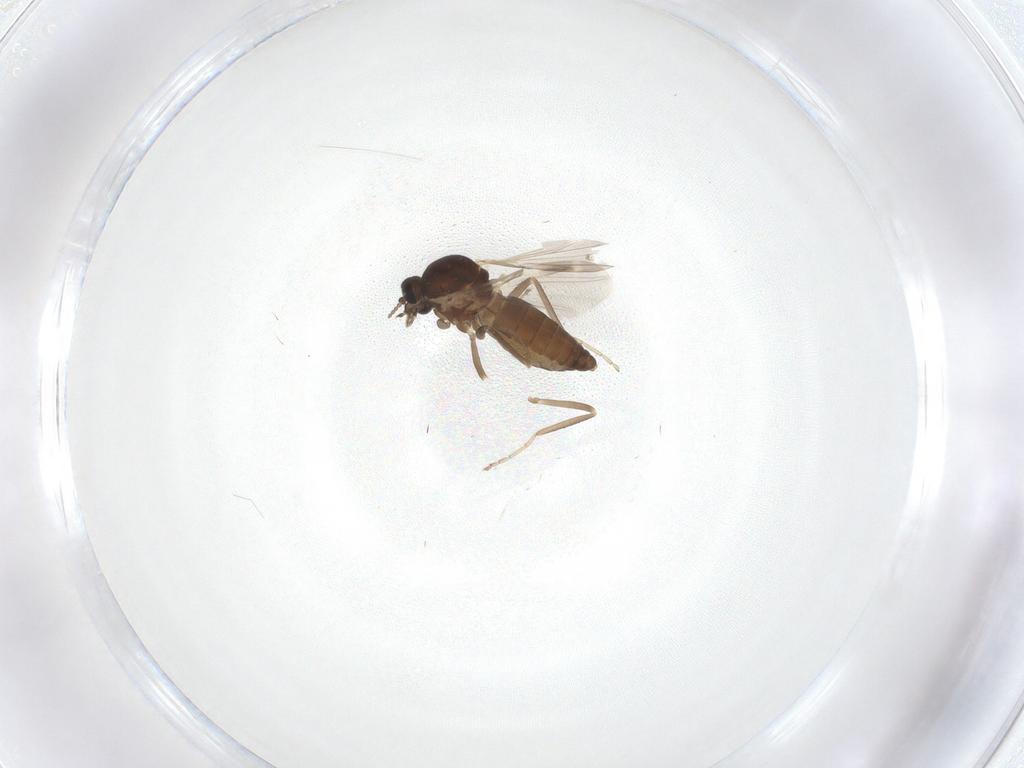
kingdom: Animalia
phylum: Arthropoda
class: Insecta
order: Diptera
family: Ceratopogonidae
